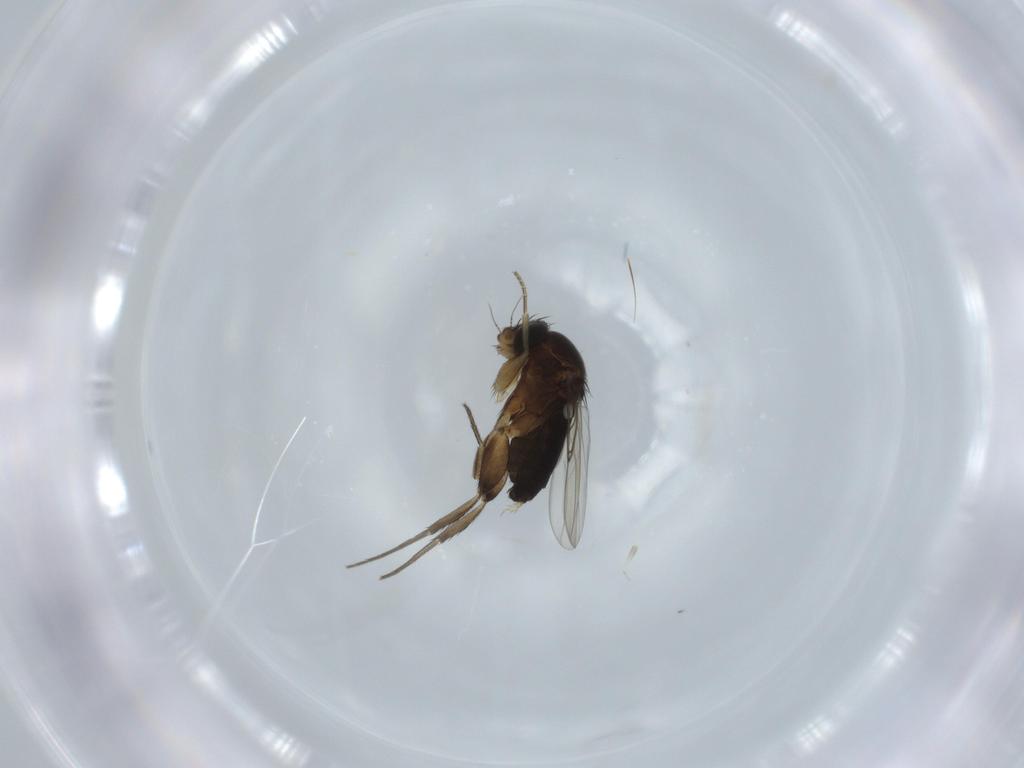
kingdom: Animalia
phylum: Arthropoda
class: Insecta
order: Diptera
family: Phoridae
